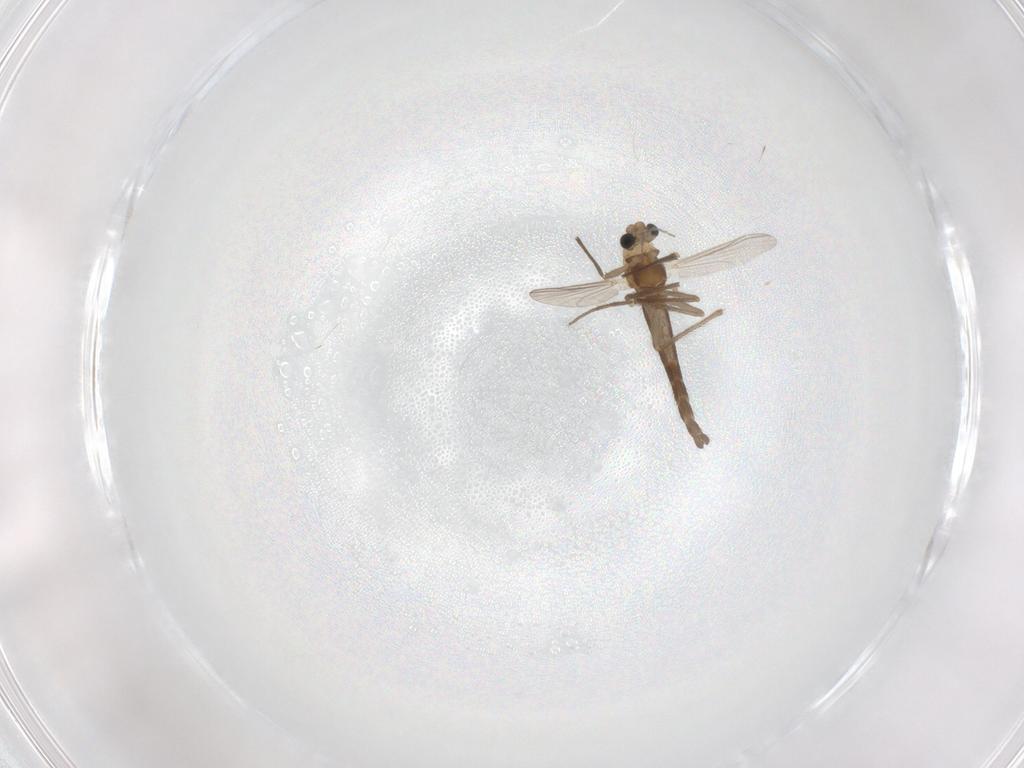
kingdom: Animalia
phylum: Arthropoda
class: Insecta
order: Diptera
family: Chironomidae
